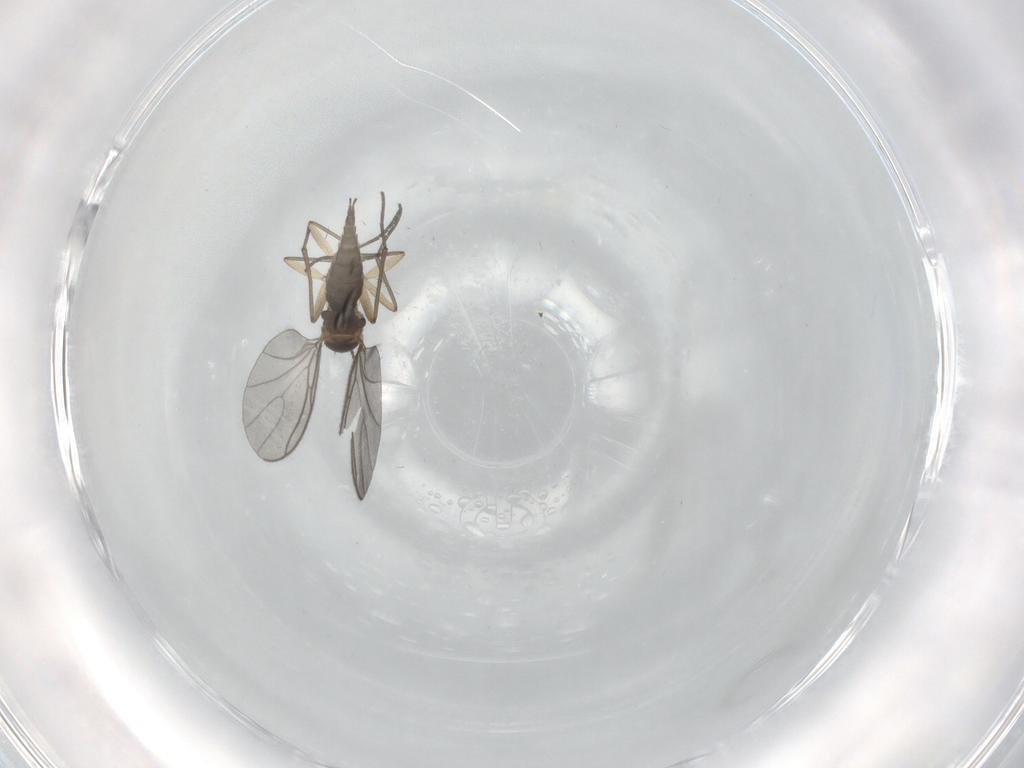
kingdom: Animalia
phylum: Arthropoda
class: Insecta
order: Diptera
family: Sciaridae
